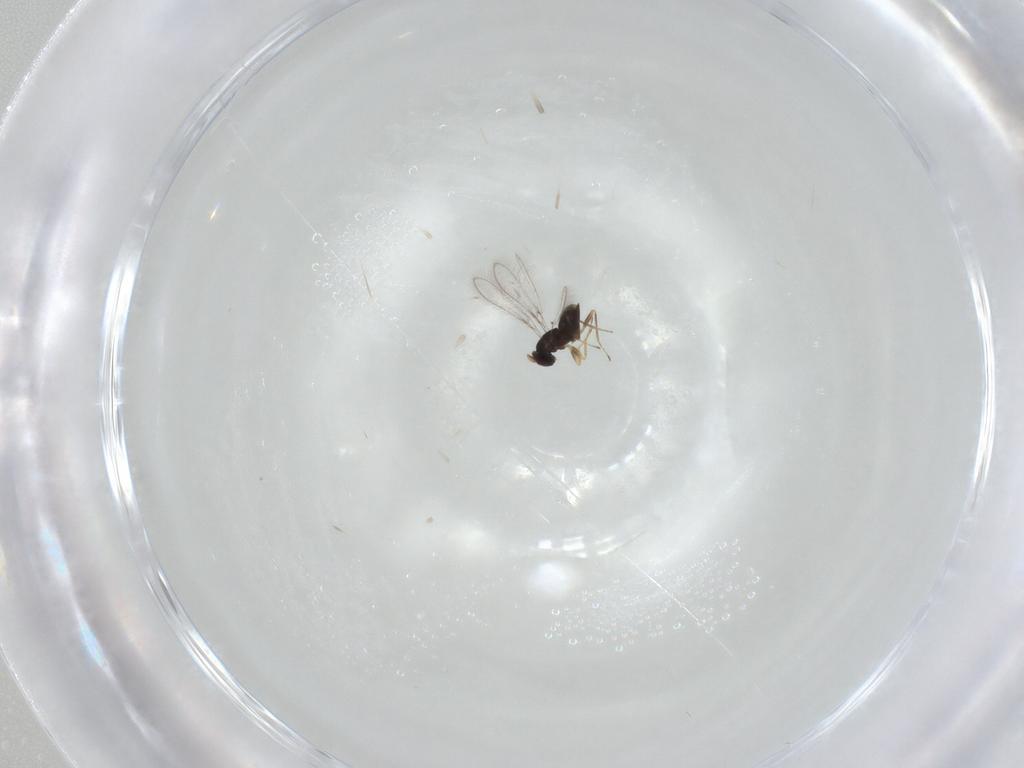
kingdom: Animalia
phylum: Arthropoda
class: Insecta
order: Hymenoptera
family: Mymaridae
